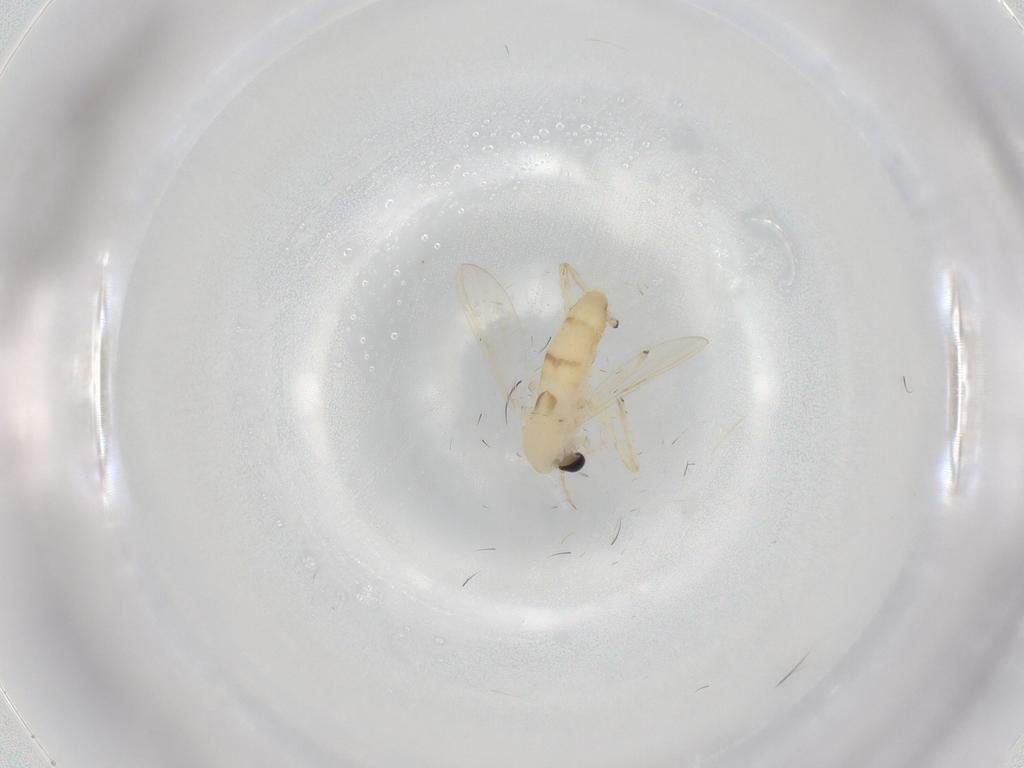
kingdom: Animalia
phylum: Arthropoda
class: Insecta
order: Diptera
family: Chironomidae
